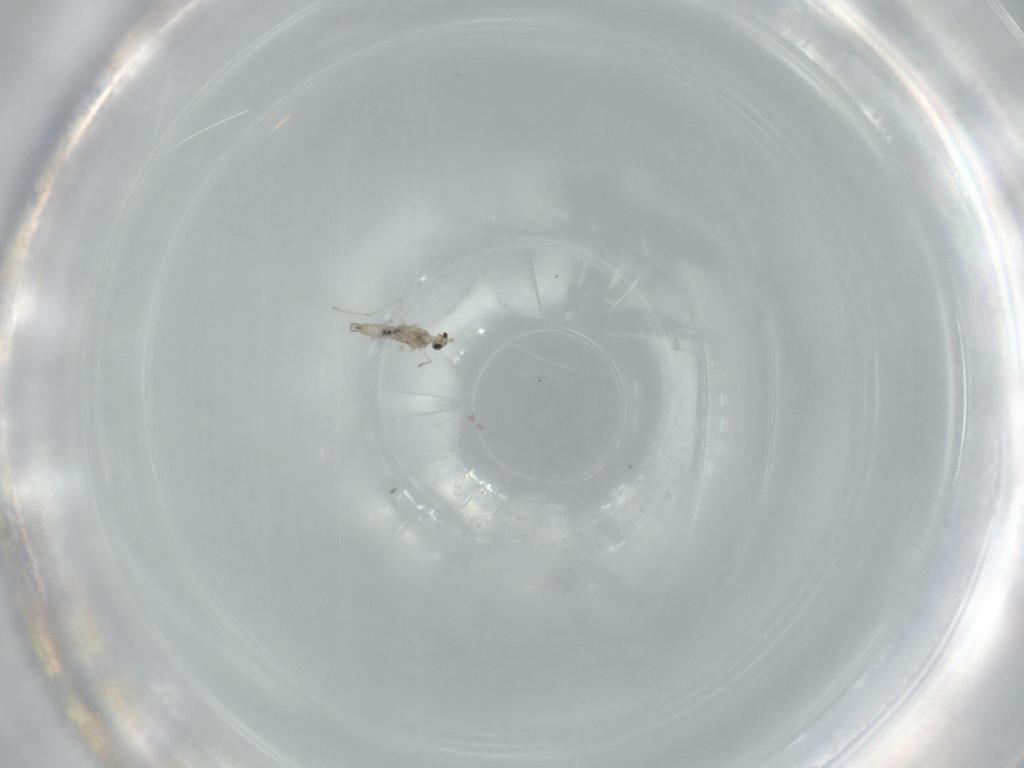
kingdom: Animalia
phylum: Arthropoda
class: Insecta
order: Diptera
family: Cecidomyiidae
